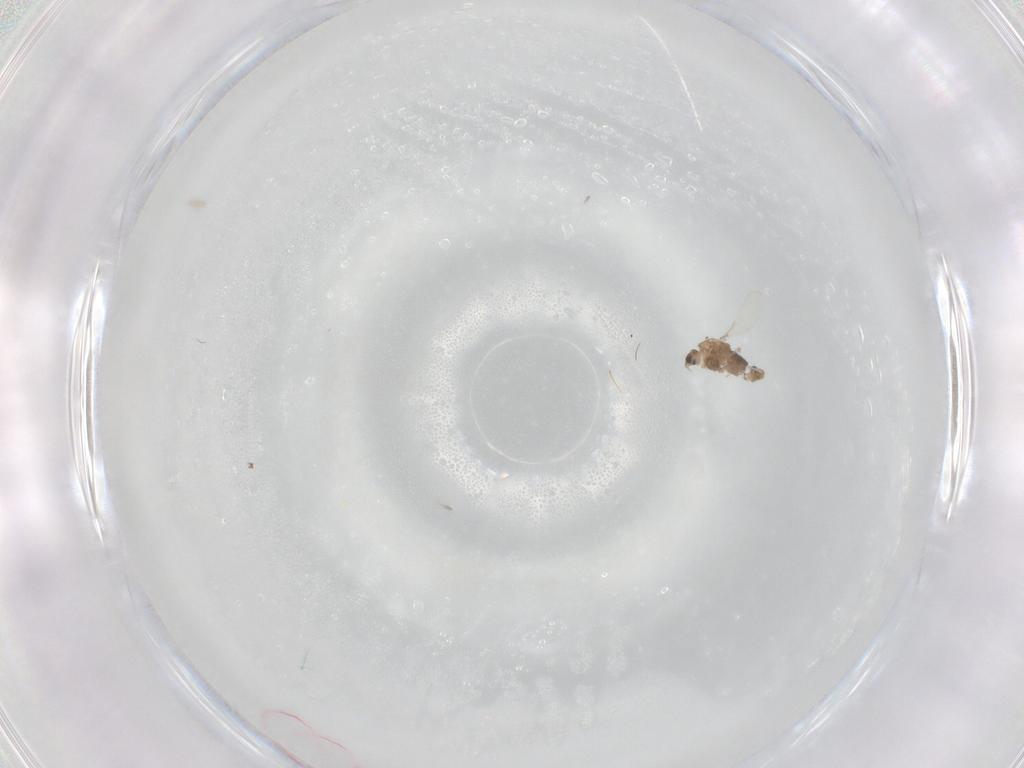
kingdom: Animalia
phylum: Arthropoda
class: Insecta
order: Diptera
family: Chironomidae
